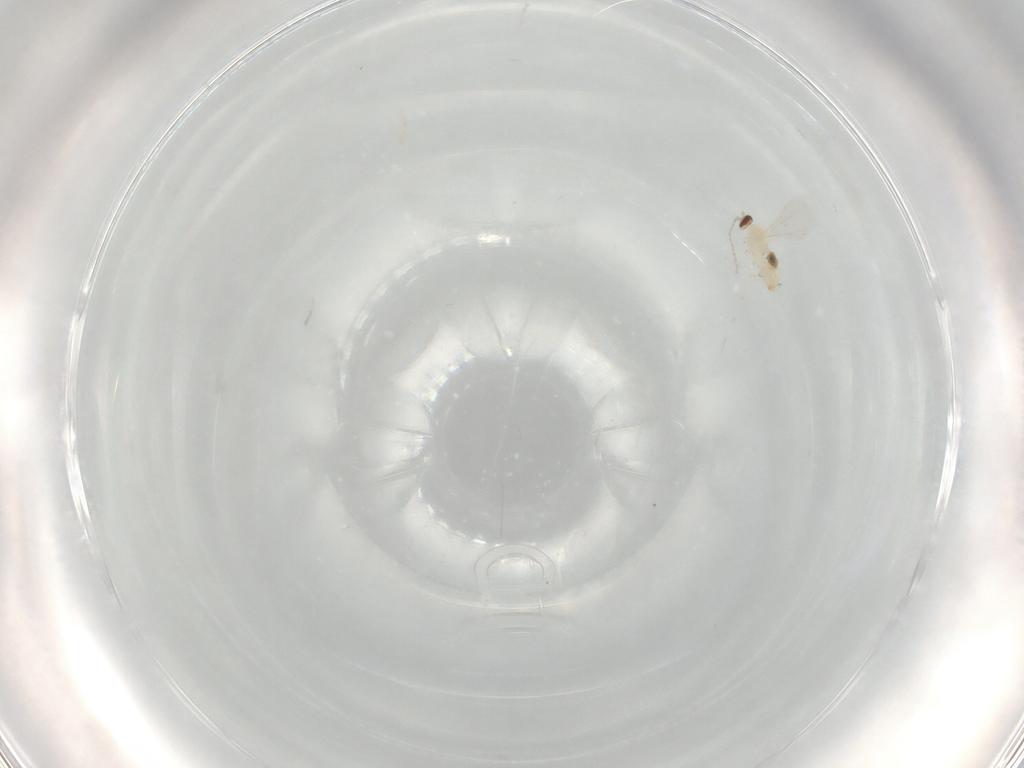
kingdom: Animalia
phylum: Arthropoda
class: Insecta
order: Diptera
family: Cecidomyiidae
